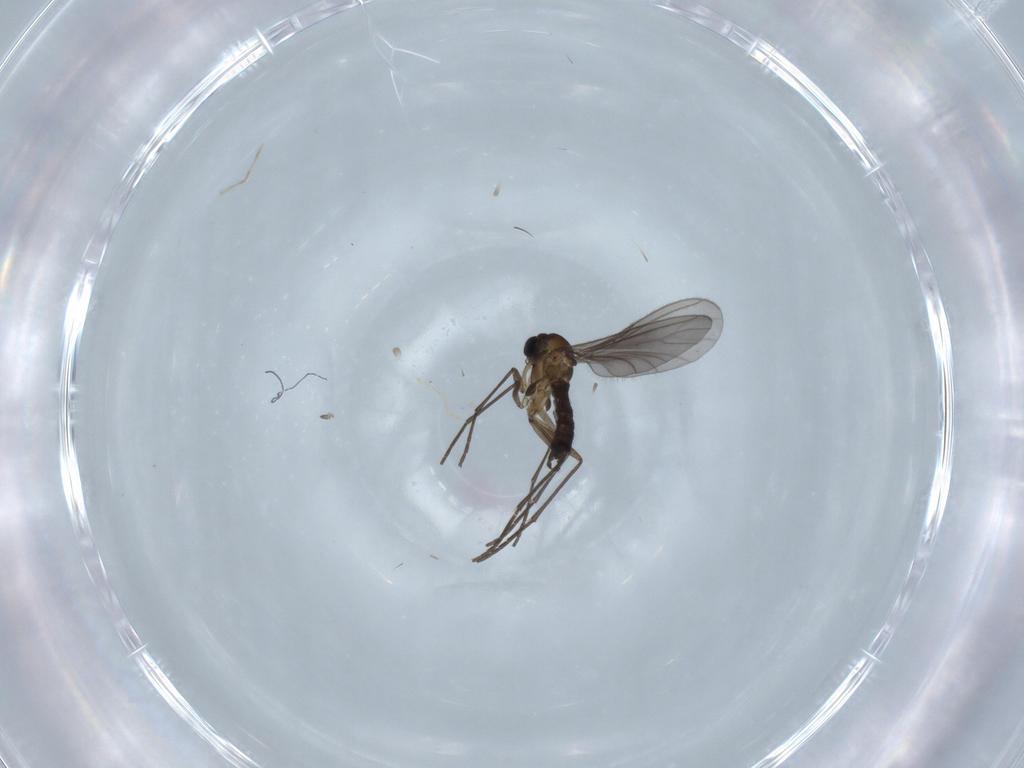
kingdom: Animalia
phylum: Arthropoda
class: Insecta
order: Diptera
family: Sciaridae
